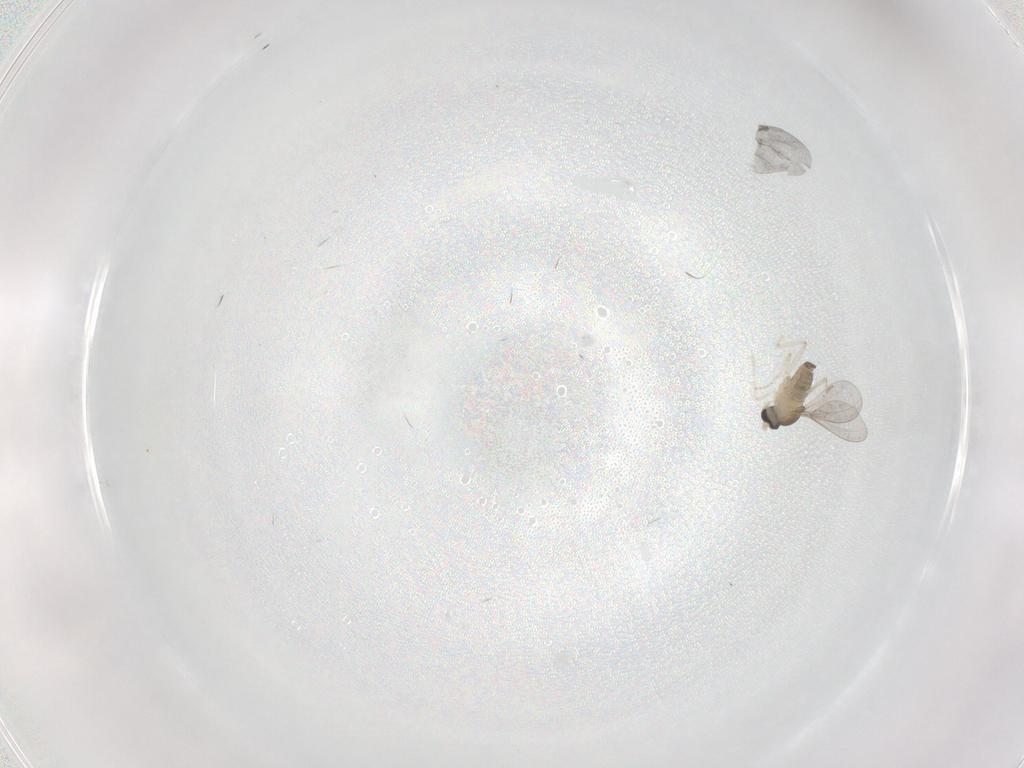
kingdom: Animalia
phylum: Arthropoda
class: Insecta
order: Diptera
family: Cecidomyiidae
